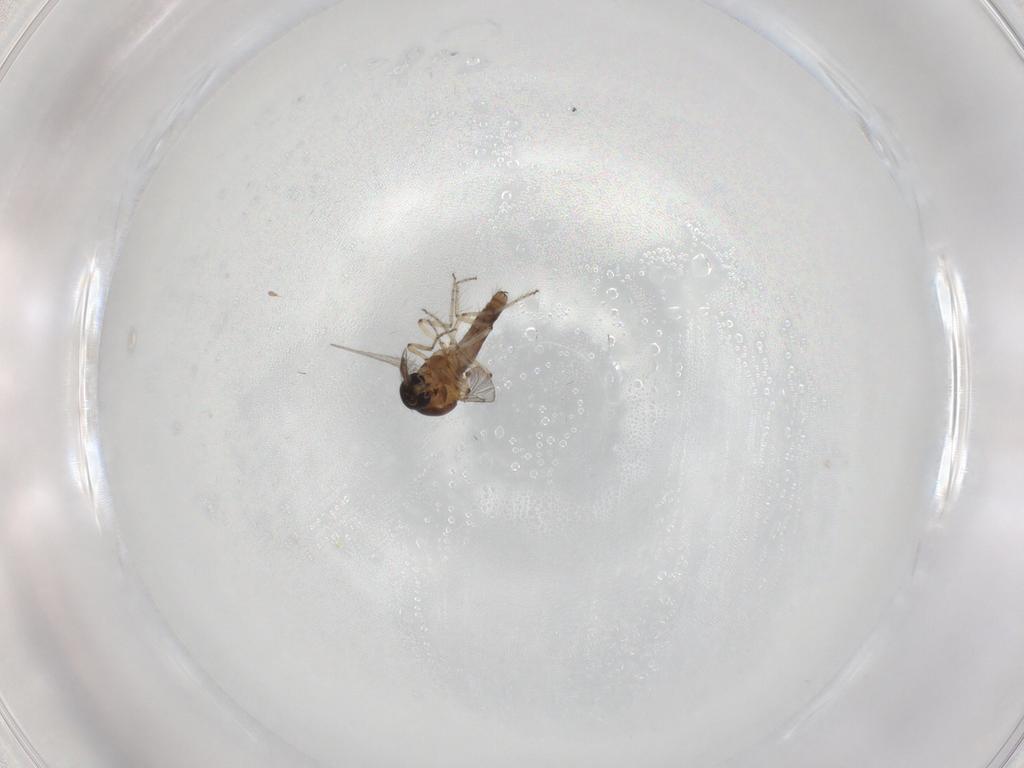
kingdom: Animalia
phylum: Arthropoda
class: Insecta
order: Diptera
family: Ceratopogonidae
